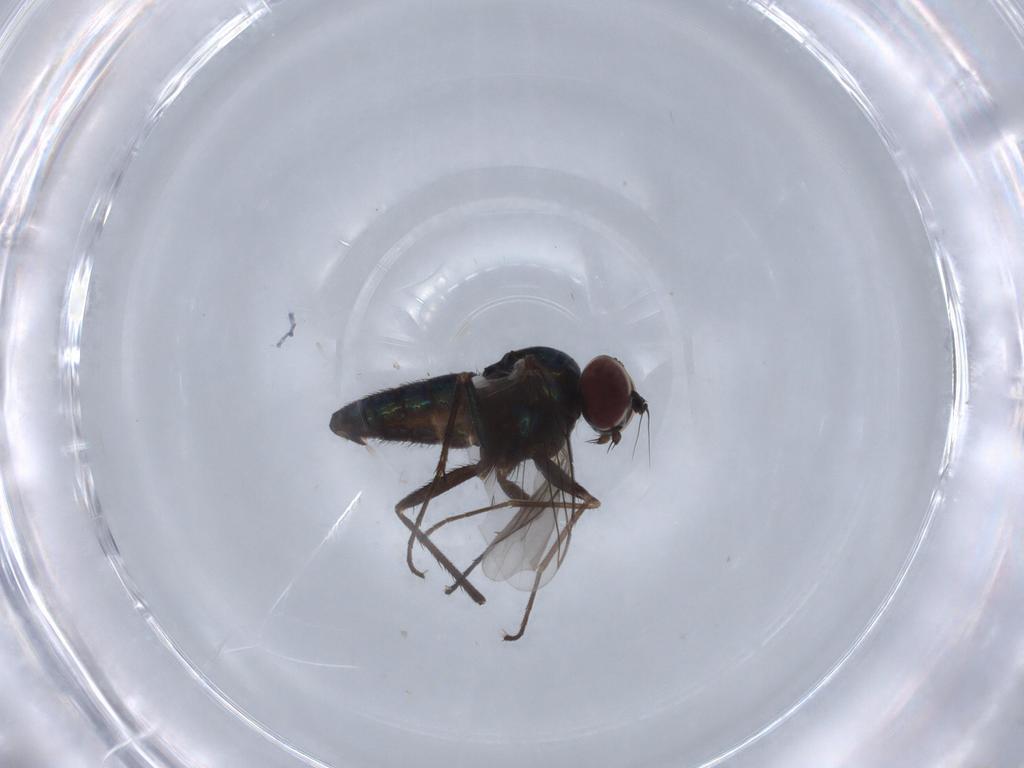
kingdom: Animalia
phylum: Arthropoda
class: Insecta
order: Diptera
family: Dolichopodidae
